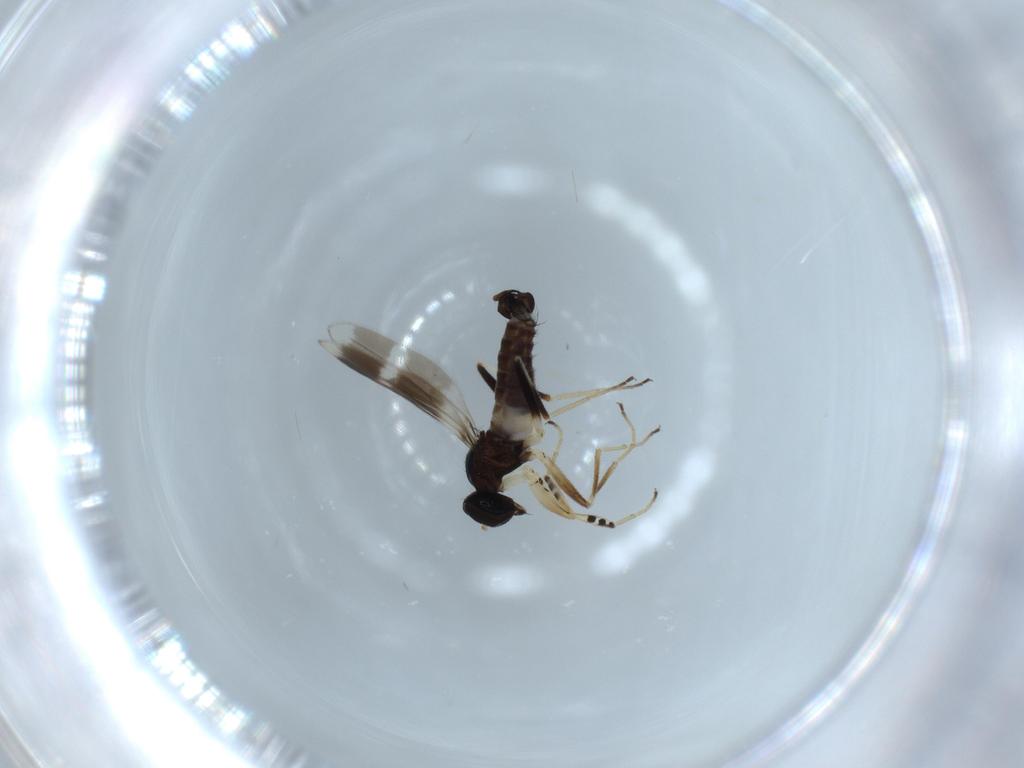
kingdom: Animalia
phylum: Arthropoda
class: Insecta
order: Diptera
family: Hybotidae
